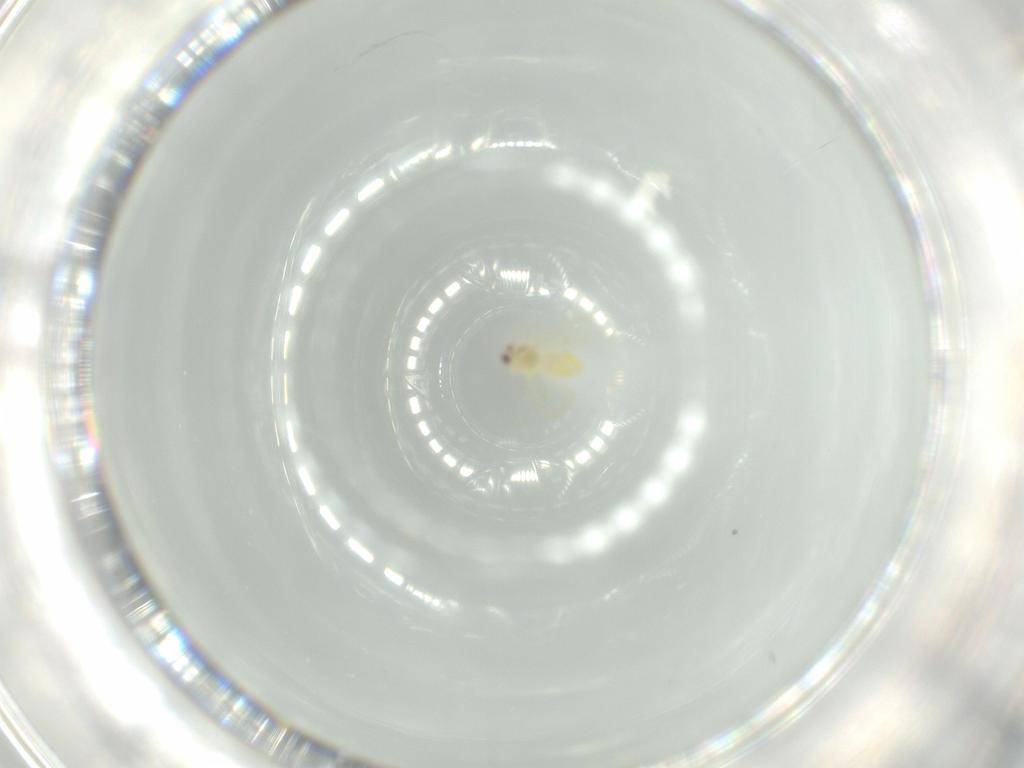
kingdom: Animalia
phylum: Arthropoda
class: Insecta
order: Hemiptera
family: Aleyrodidae
